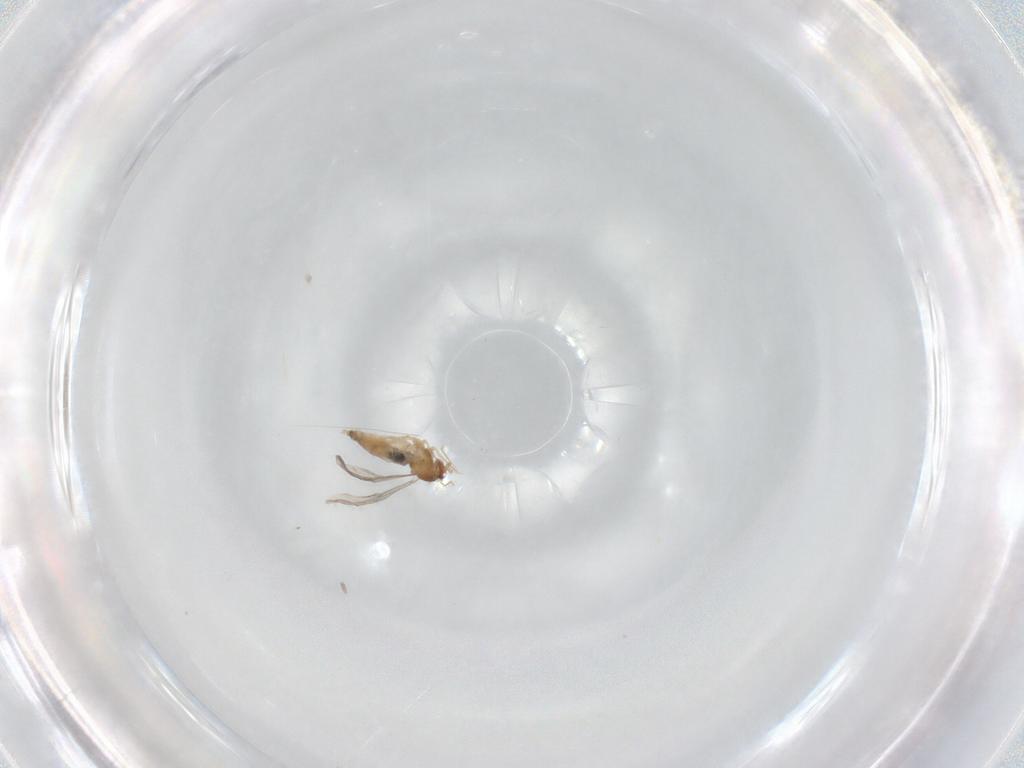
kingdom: Animalia
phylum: Arthropoda
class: Insecta
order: Diptera
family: Cecidomyiidae
